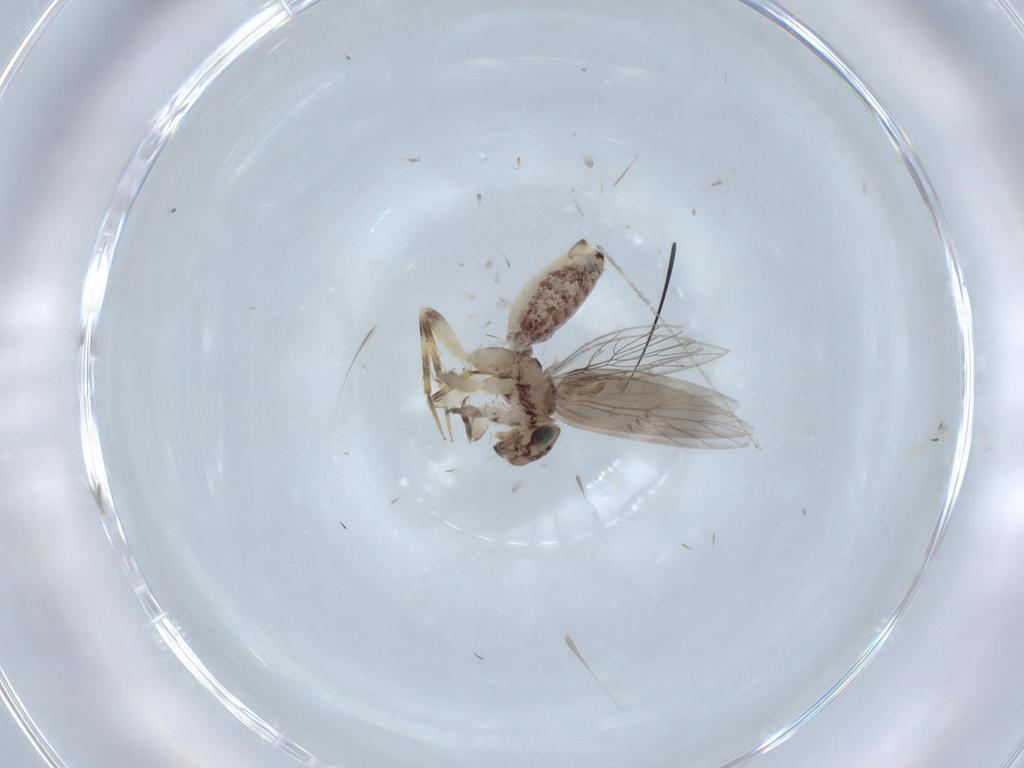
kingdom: Animalia
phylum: Arthropoda
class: Insecta
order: Psocodea
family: Lepidopsocidae
